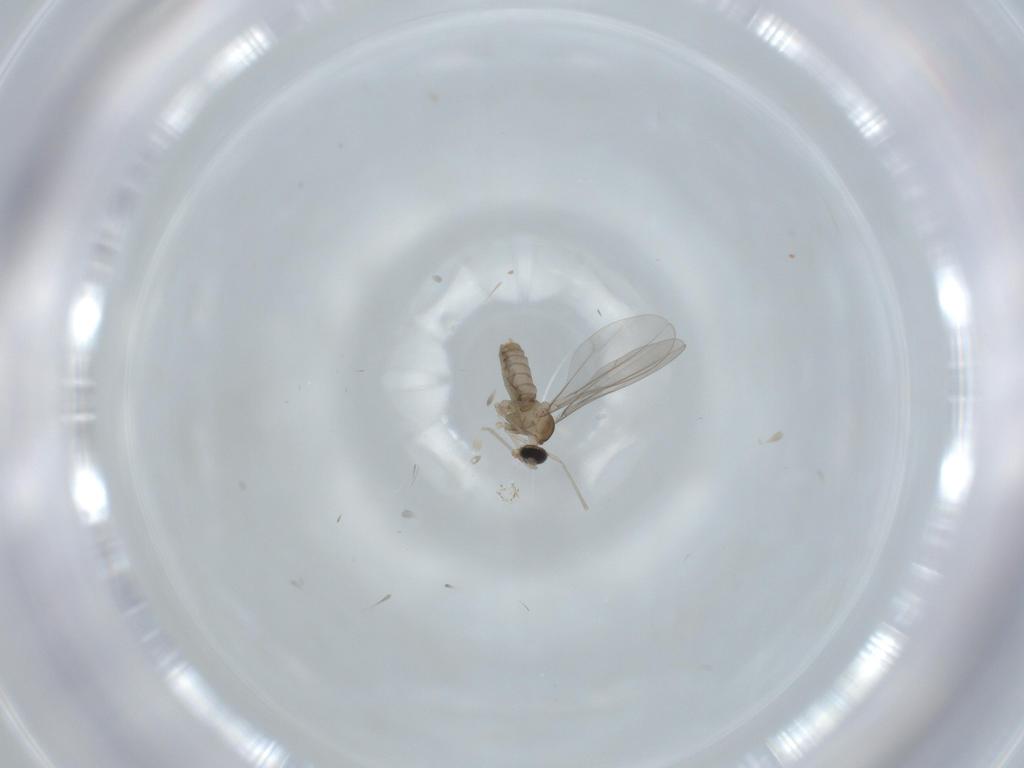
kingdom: Animalia
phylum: Arthropoda
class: Insecta
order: Diptera
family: Cecidomyiidae
